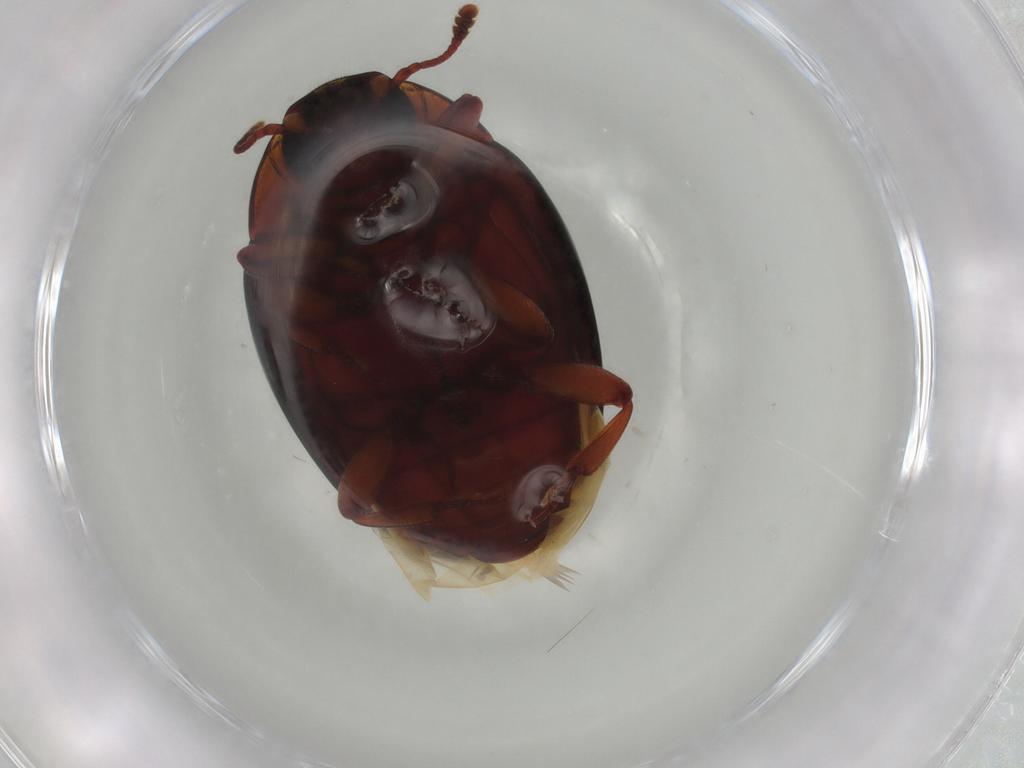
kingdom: Animalia
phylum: Arthropoda
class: Insecta
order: Coleoptera
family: Zopheridae
